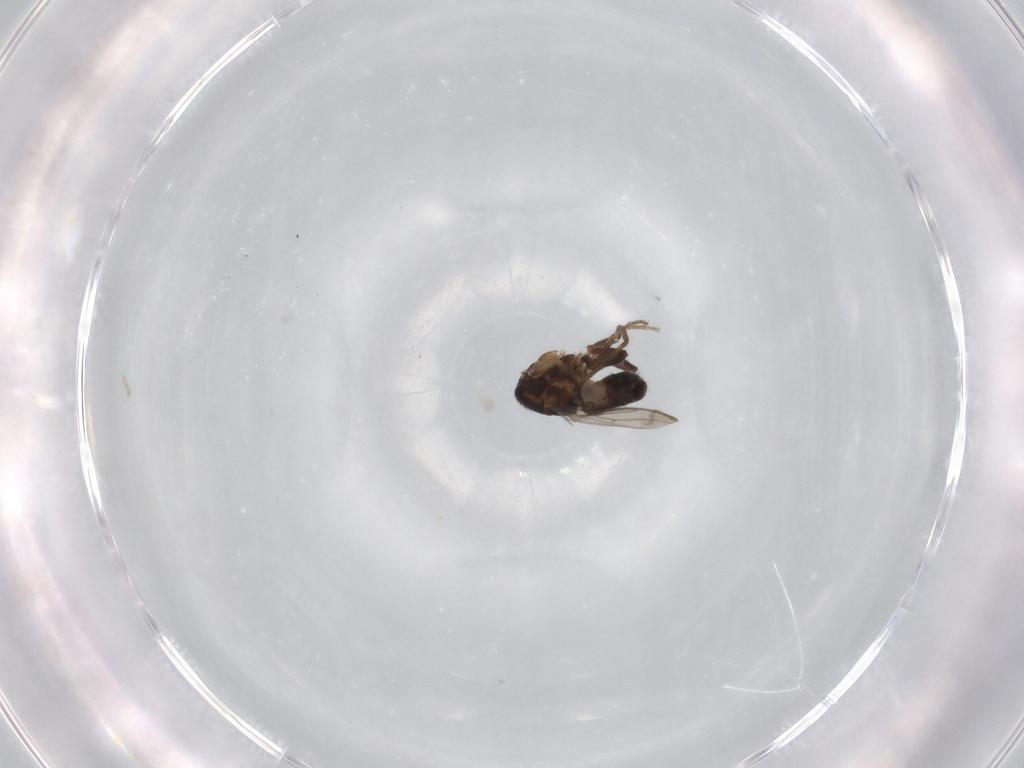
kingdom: Animalia
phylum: Arthropoda
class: Insecta
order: Diptera
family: Sphaeroceridae
